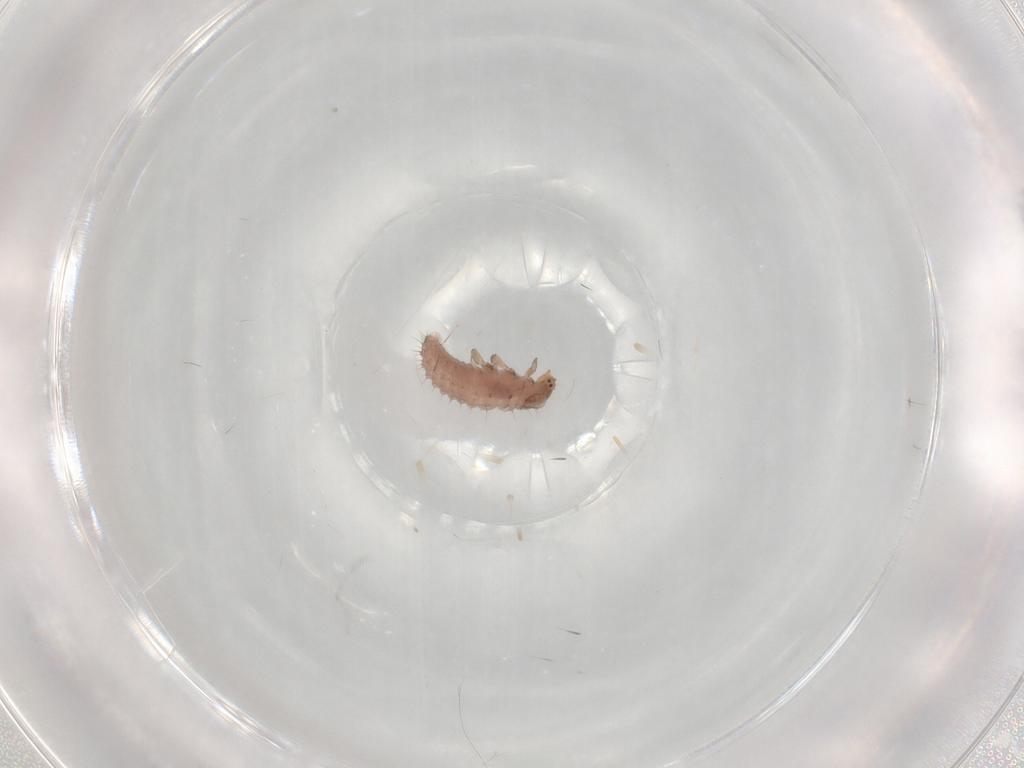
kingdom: Animalia
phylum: Arthropoda
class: Insecta
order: Coleoptera
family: Coccinellidae
